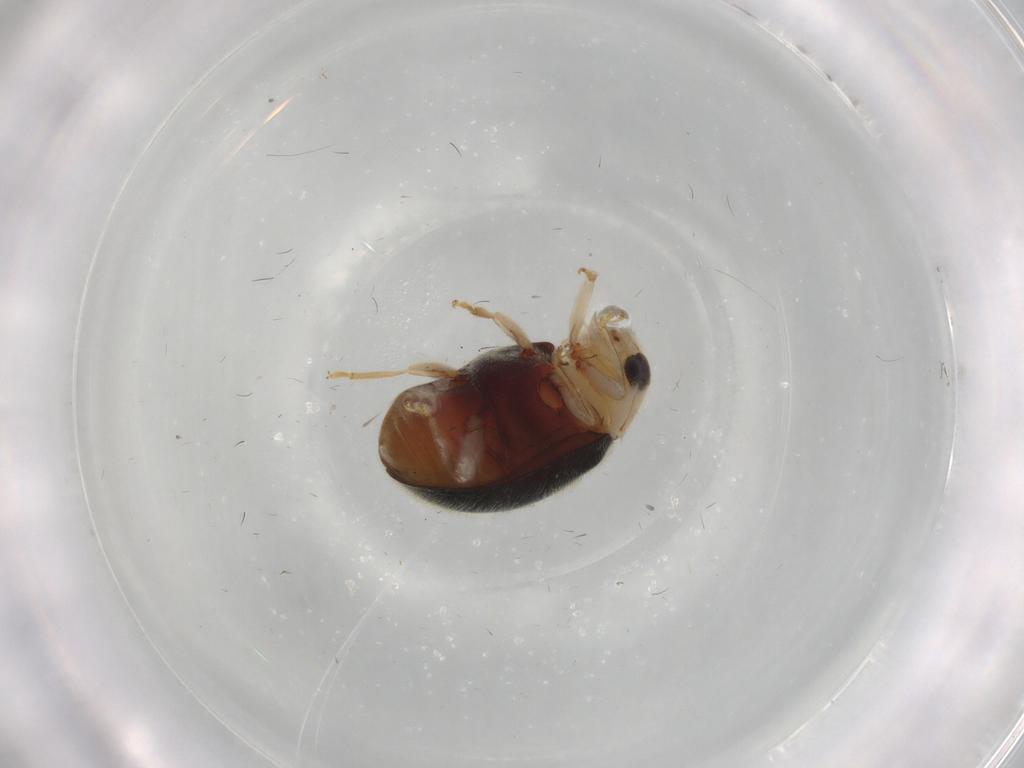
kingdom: Animalia
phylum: Arthropoda
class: Insecta
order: Coleoptera
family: Coccinellidae
